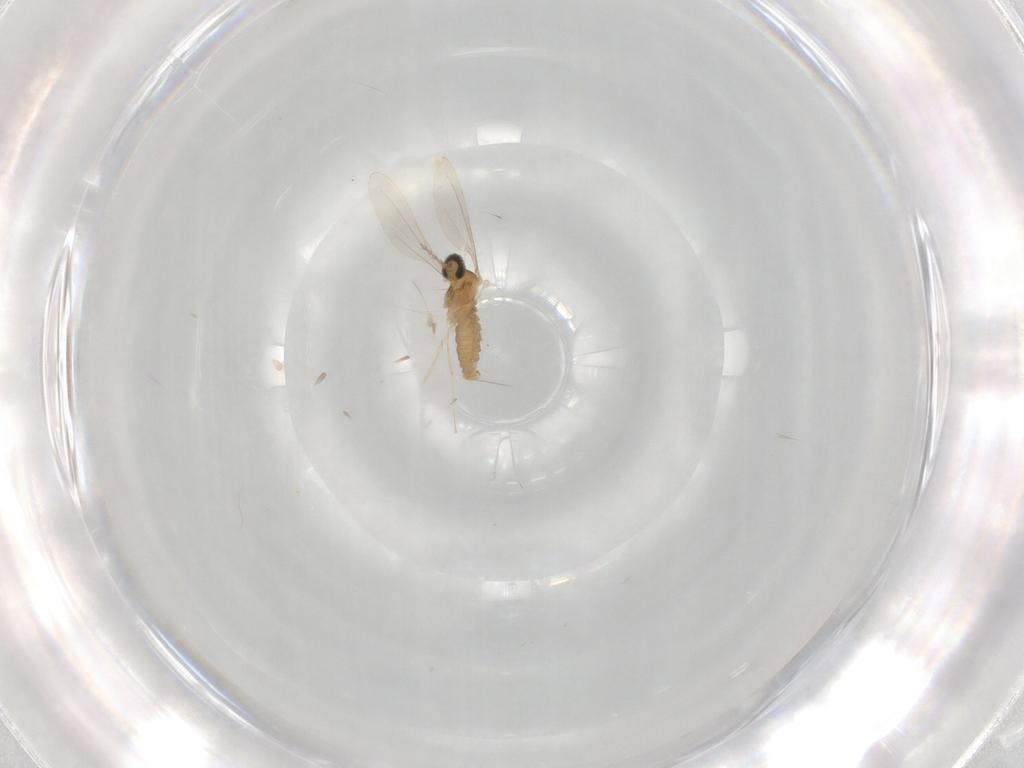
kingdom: Animalia
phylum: Arthropoda
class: Insecta
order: Diptera
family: Cecidomyiidae
